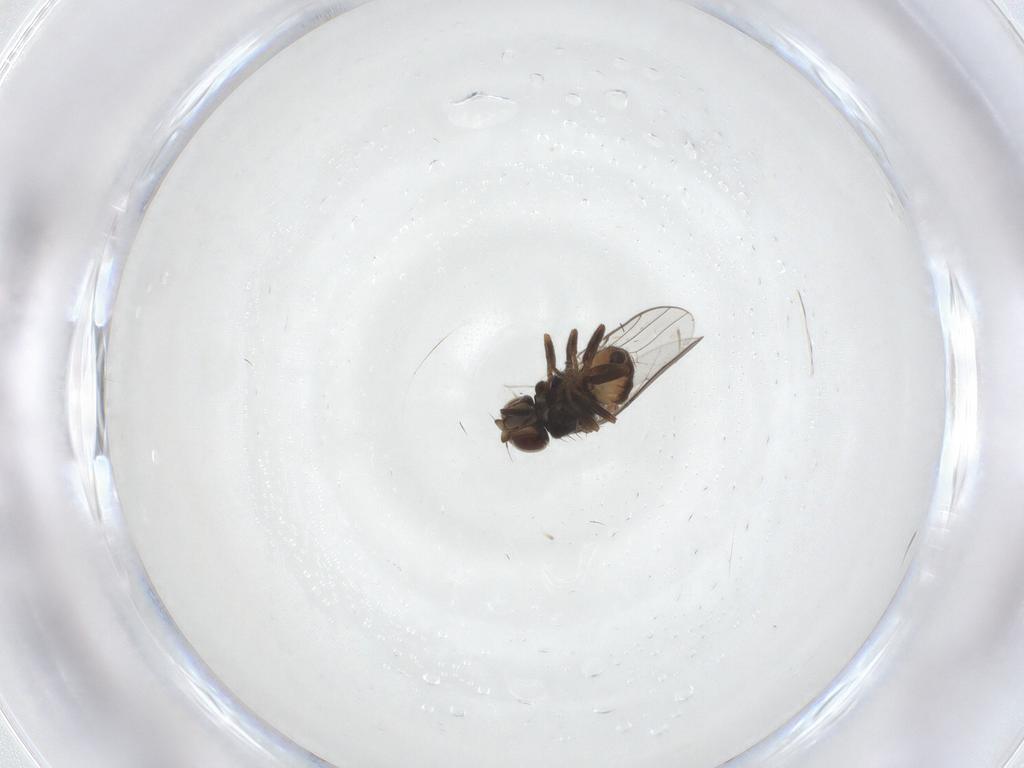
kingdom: Animalia
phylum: Arthropoda
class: Insecta
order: Diptera
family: Chloropidae
